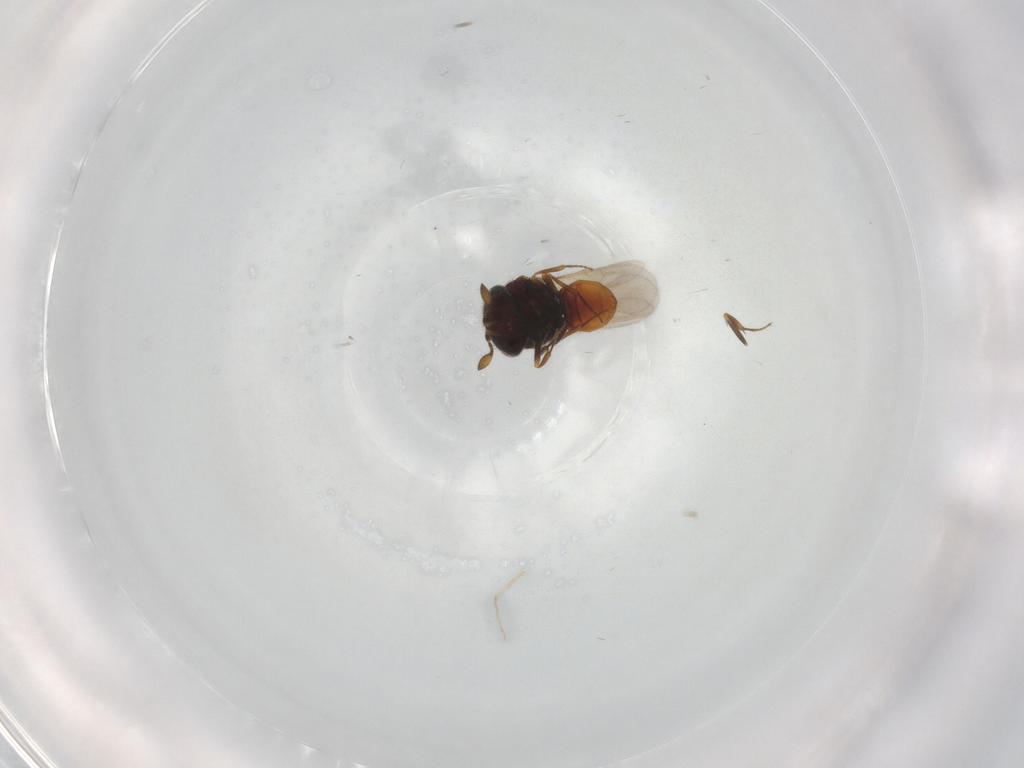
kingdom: Animalia
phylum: Arthropoda
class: Insecta
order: Hymenoptera
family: Scelionidae
